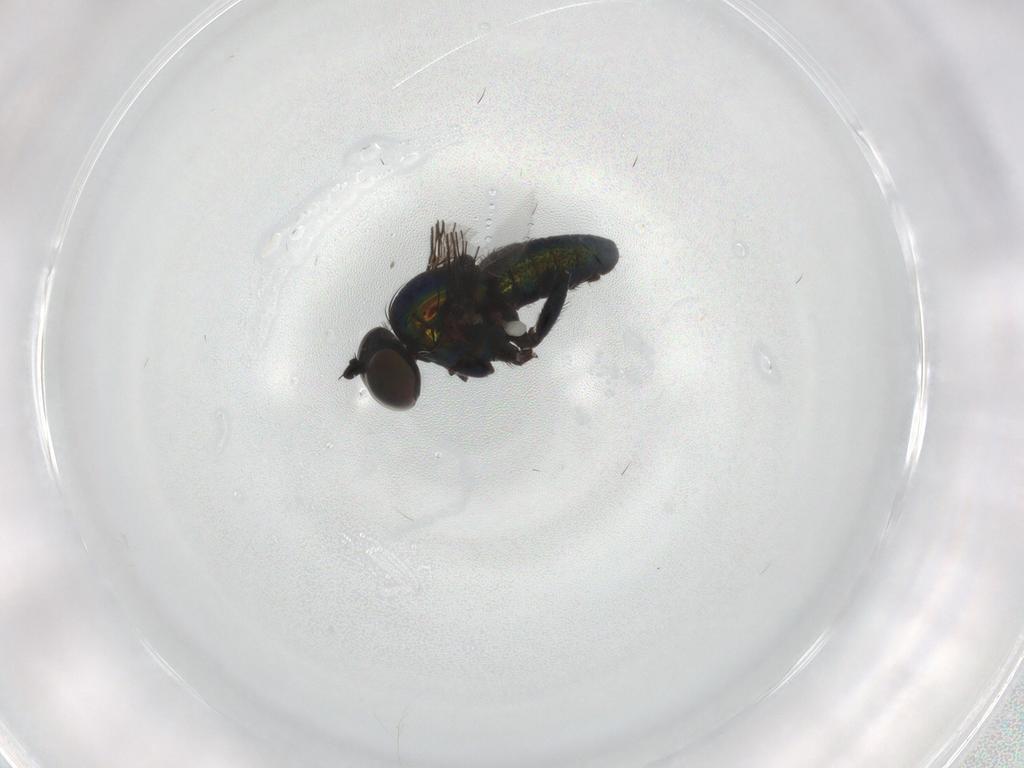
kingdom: Animalia
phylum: Arthropoda
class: Insecta
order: Diptera
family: Dolichopodidae
